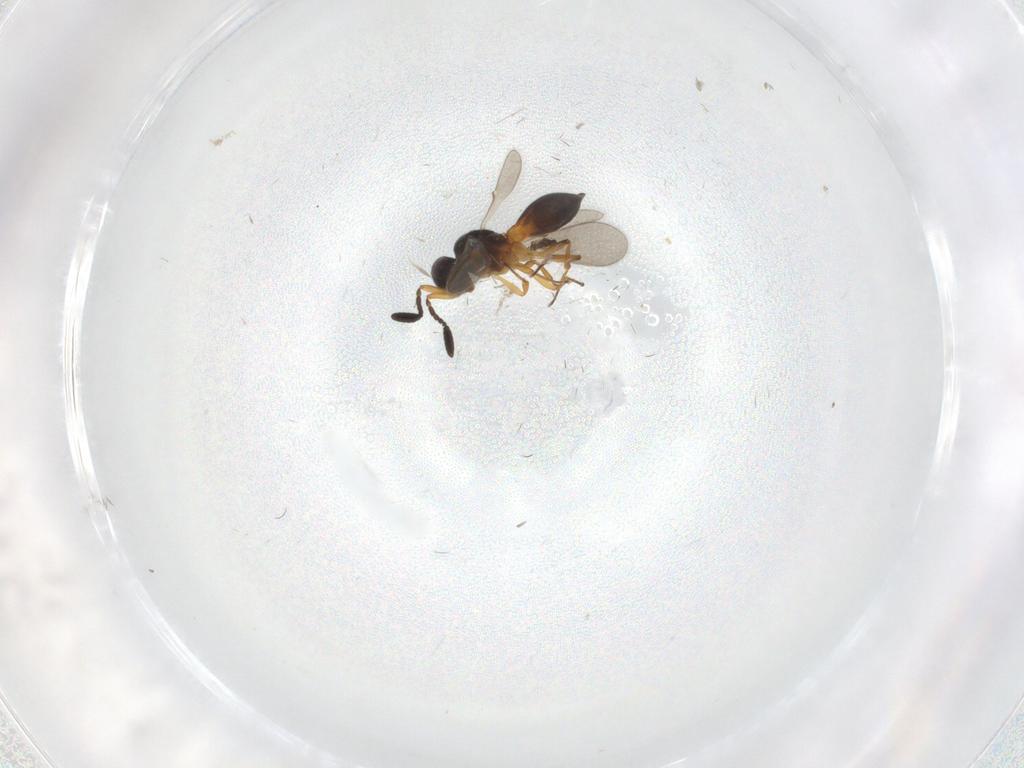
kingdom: Animalia
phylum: Arthropoda
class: Insecta
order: Hymenoptera
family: Scelionidae
